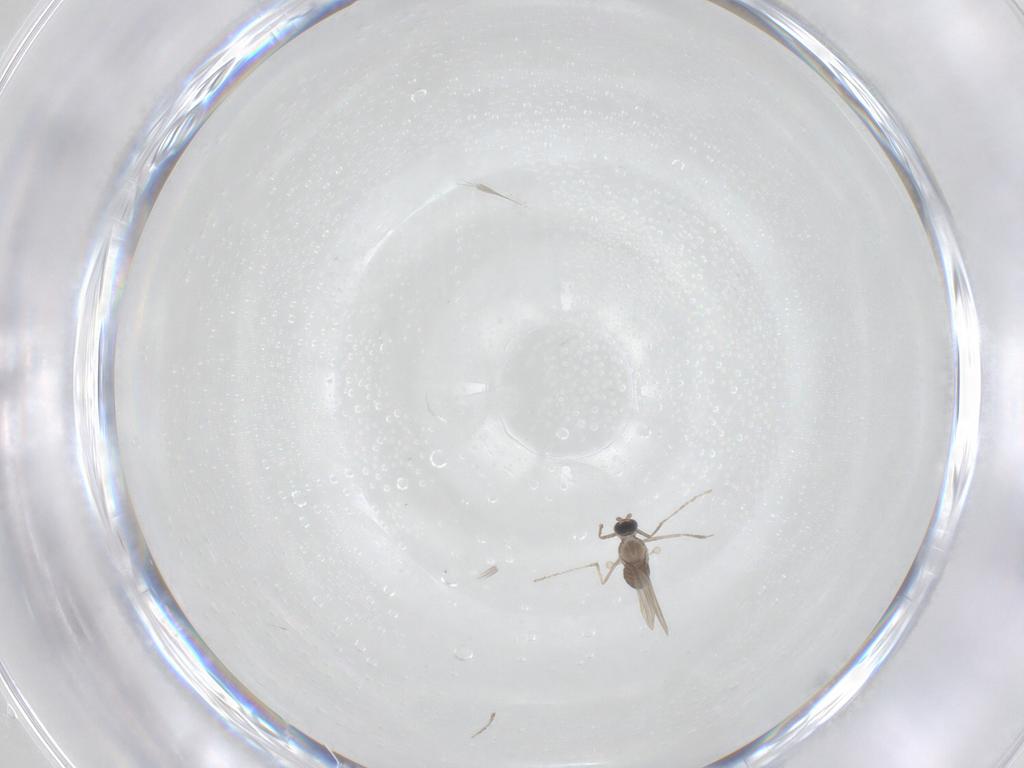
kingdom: Animalia
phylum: Arthropoda
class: Insecta
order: Diptera
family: Cecidomyiidae
